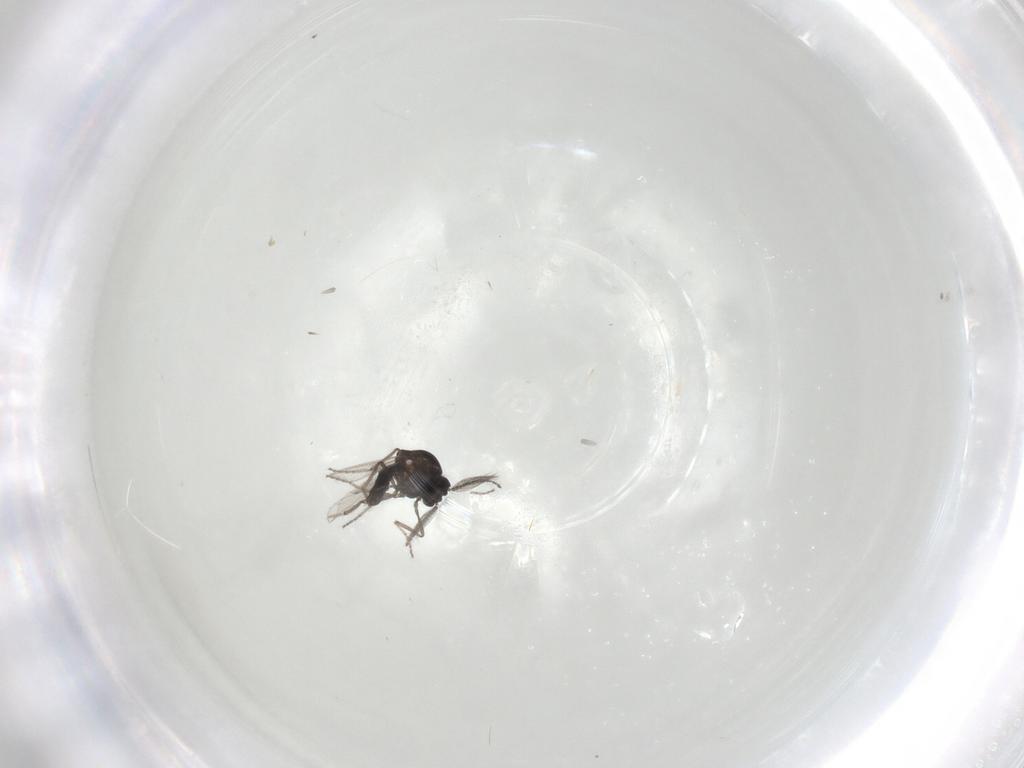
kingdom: Animalia
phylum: Arthropoda
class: Insecta
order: Diptera
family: Ceratopogonidae
